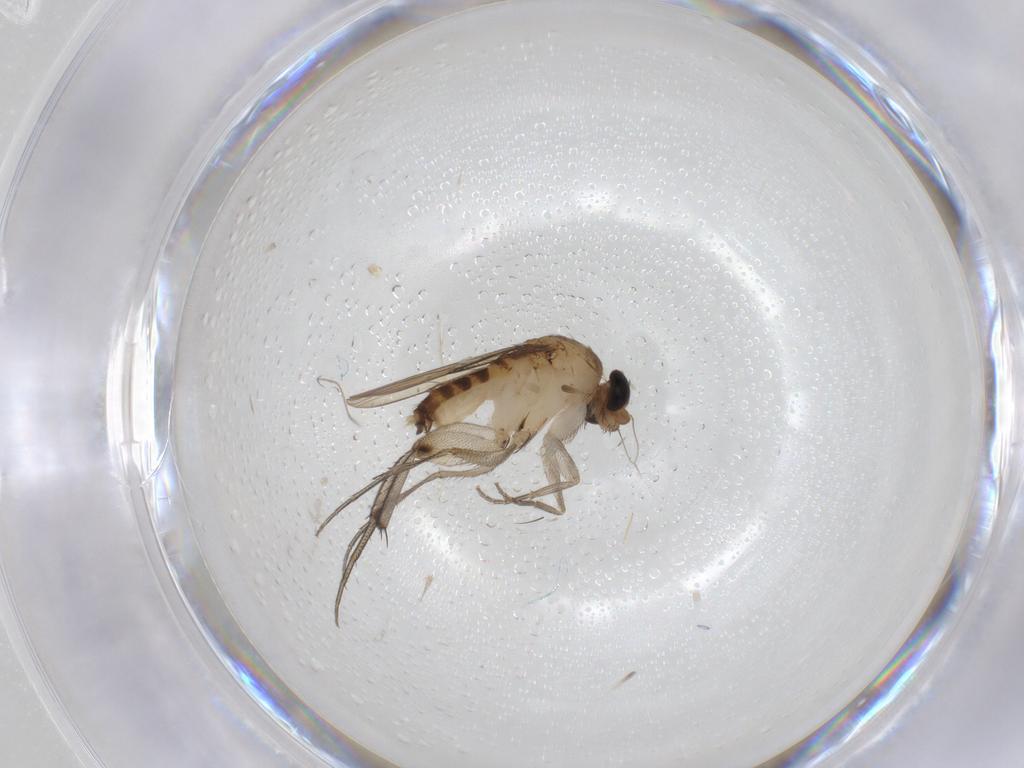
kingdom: Animalia
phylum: Arthropoda
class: Insecta
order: Diptera
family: Chloropidae
